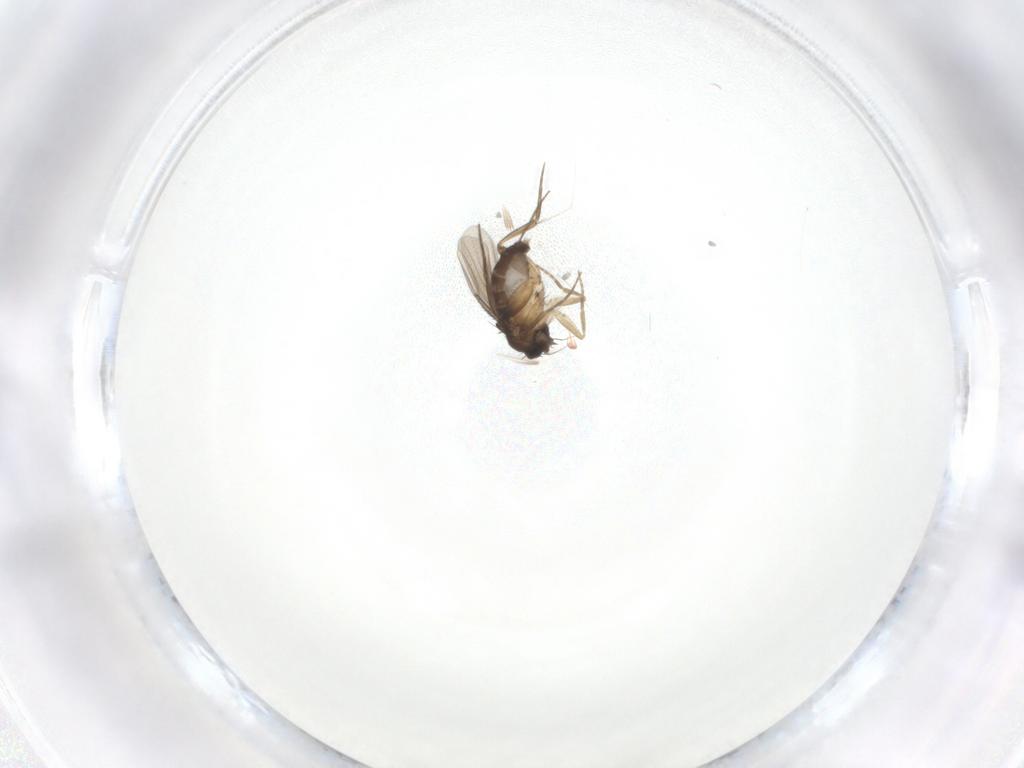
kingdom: Animalia
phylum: Arthropoda
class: Insecta
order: Diptera
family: Phoridae
